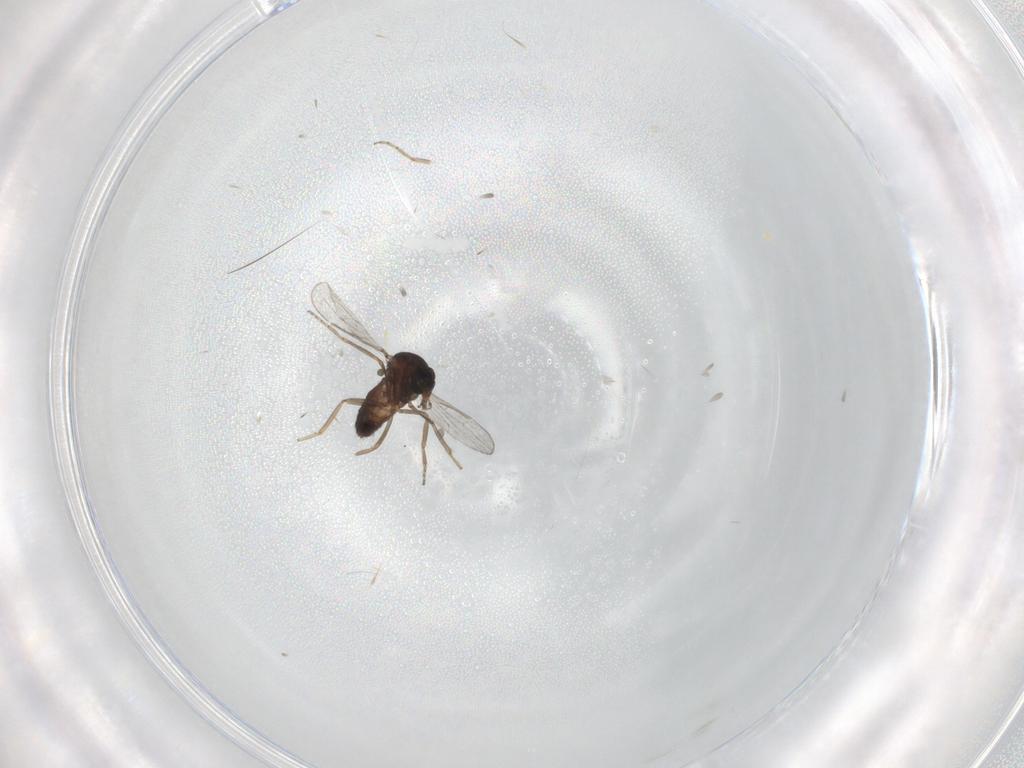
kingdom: Animalia
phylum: Arthropoda
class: Insecta
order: Diptera
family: Ceratopogonidae
